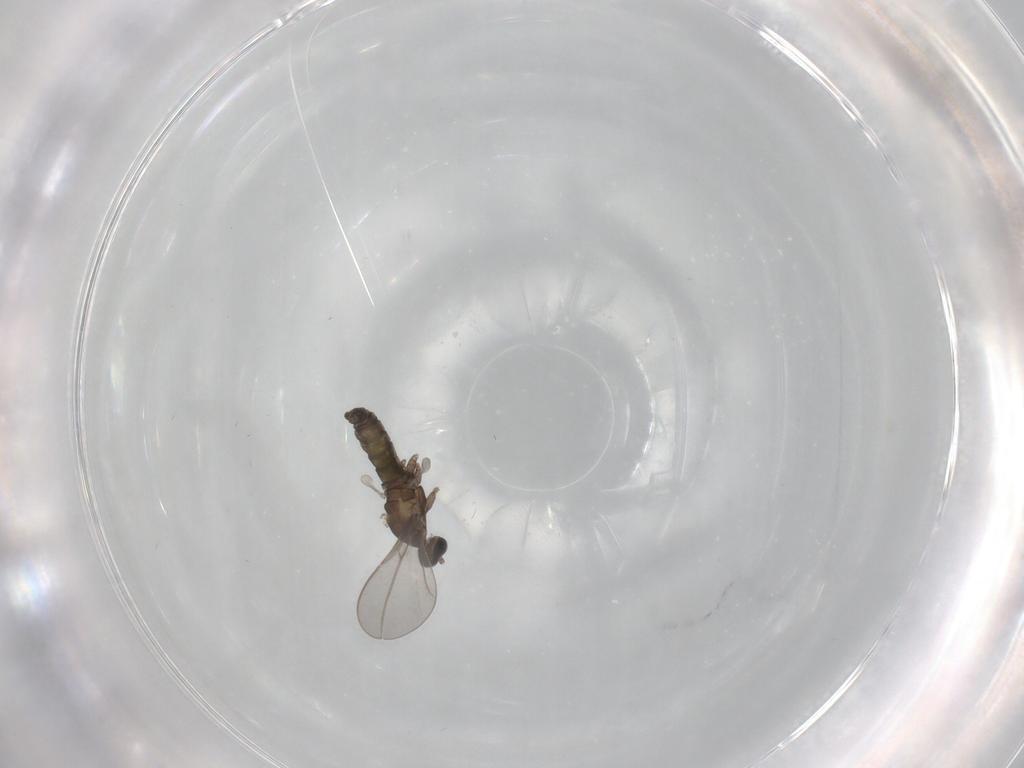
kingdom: Animalia
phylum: Arthropoda
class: Insecta
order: Diptera
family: Cecidomyiidae
